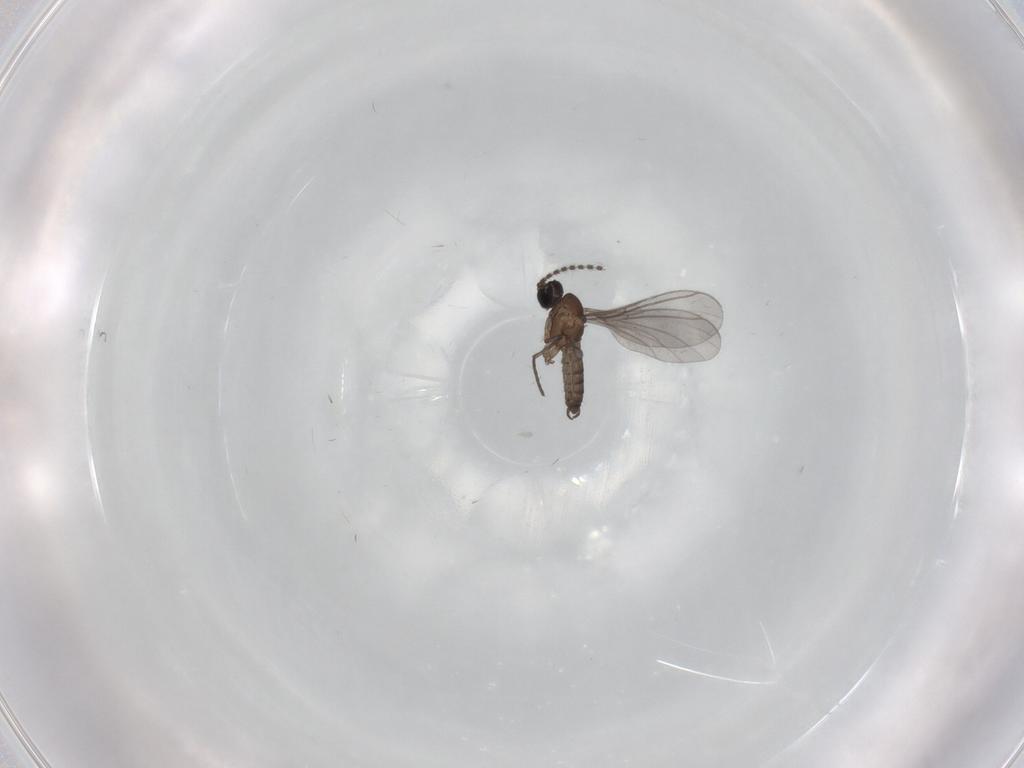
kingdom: Animalia
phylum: Arthropoda
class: Insecta
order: Diptera
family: Sciaridae
